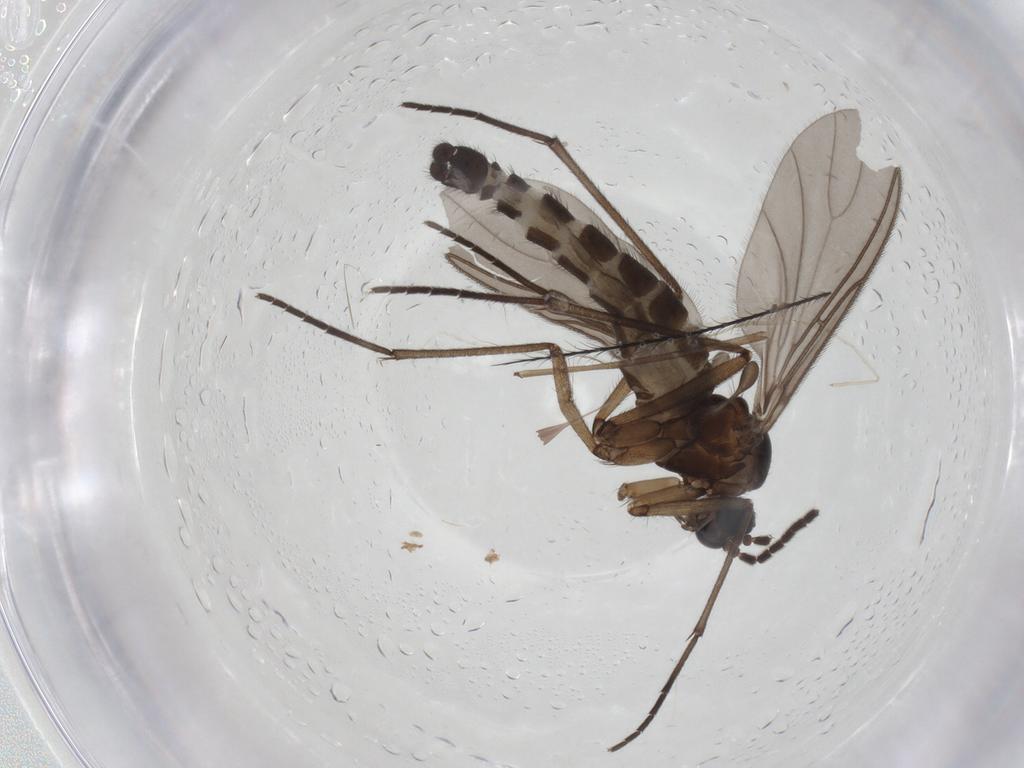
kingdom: Animalia
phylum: Arthropoda
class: Insecta
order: Diptera
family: Sciaridae
